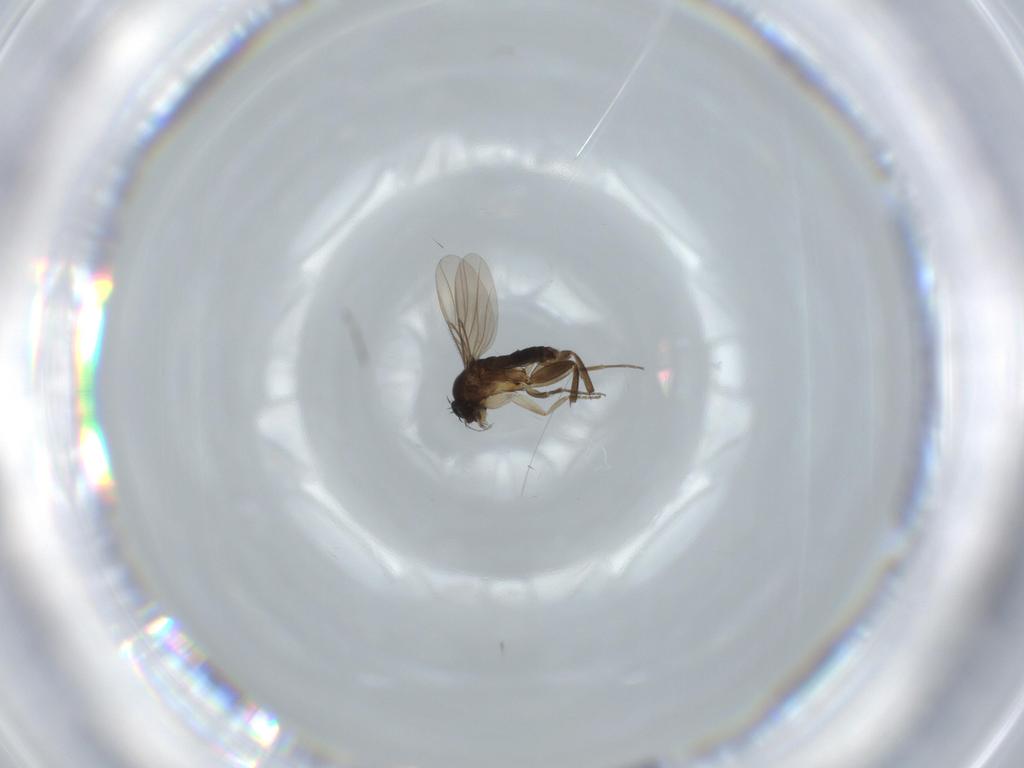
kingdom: Animalia
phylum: Arthropoda
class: Insecta
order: Diptera
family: Phoridae
